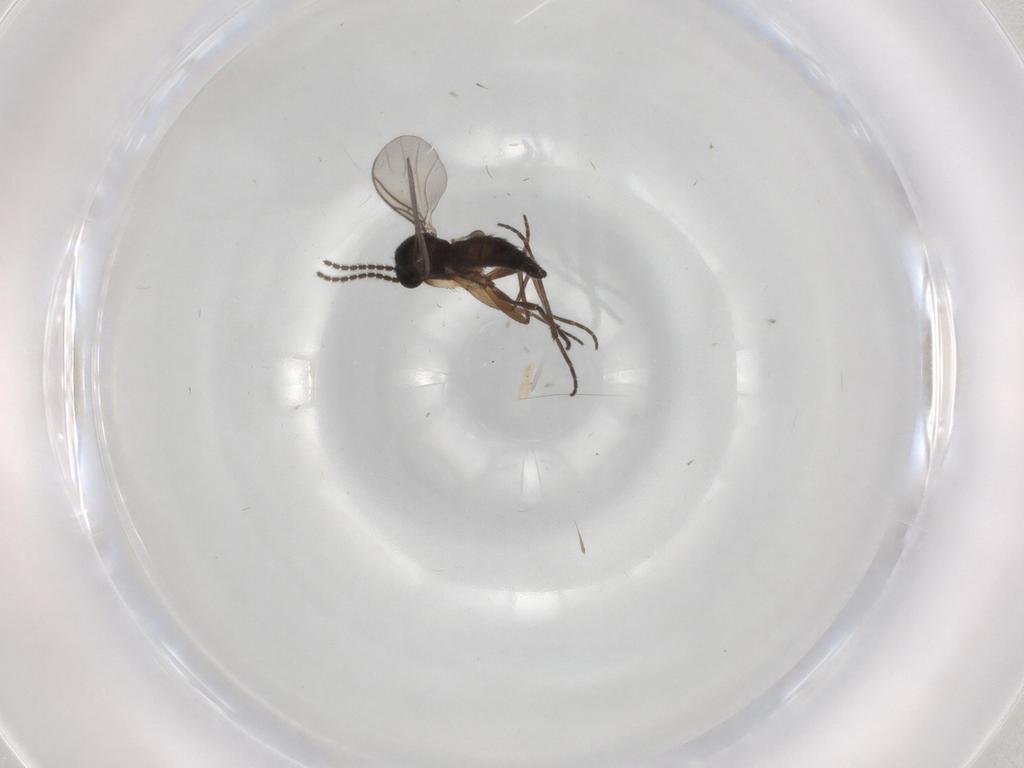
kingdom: Animalia
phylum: Arthropoda
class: Insecta
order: Diptera
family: Sciaridae
